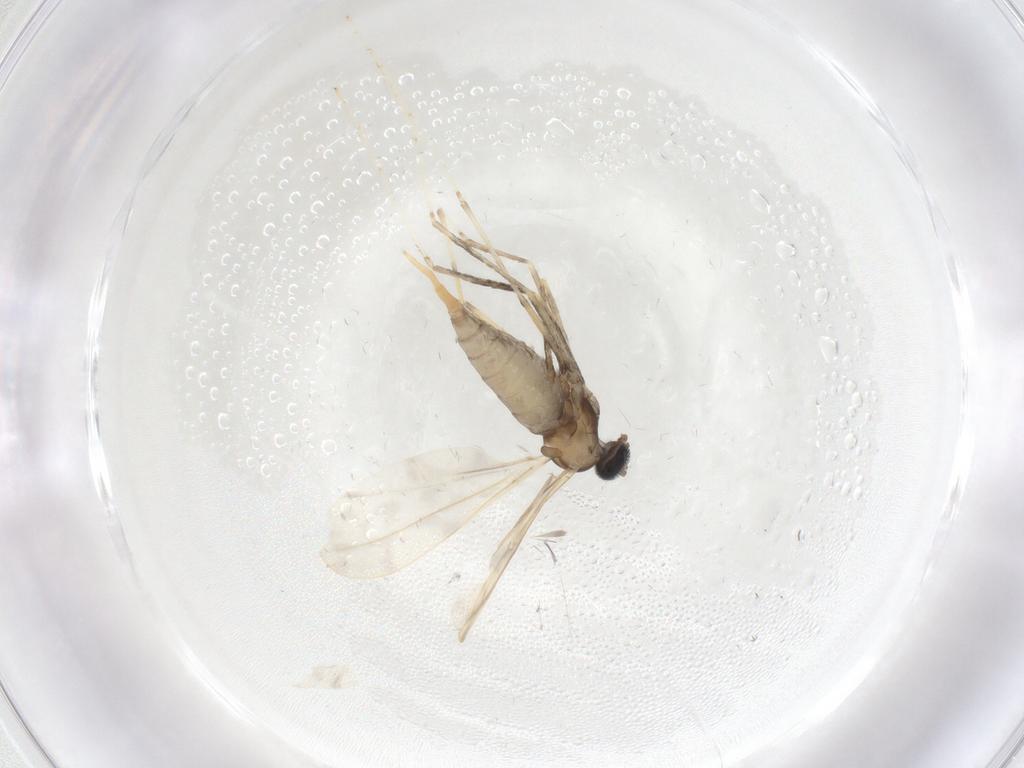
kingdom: Animalia
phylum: Arthropoda
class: Insecta
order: Diptera
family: Cecidomyiidae
